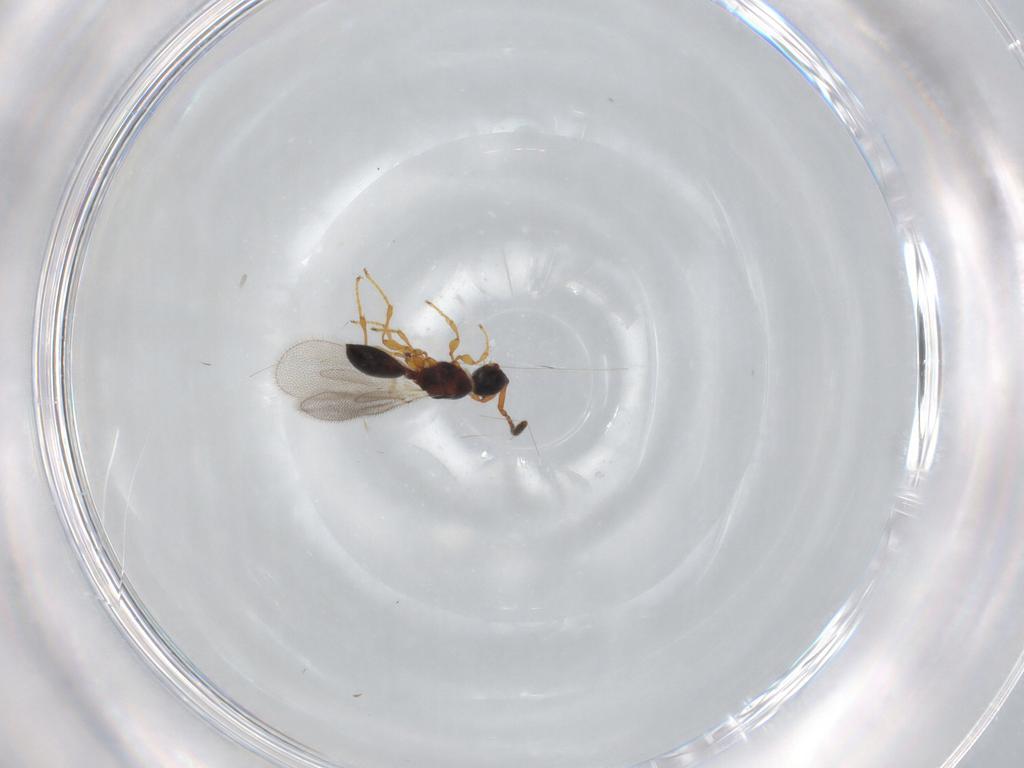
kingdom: Animalia
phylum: Arthropoda
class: Insecta
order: Hymenoptera
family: Diapriidae
